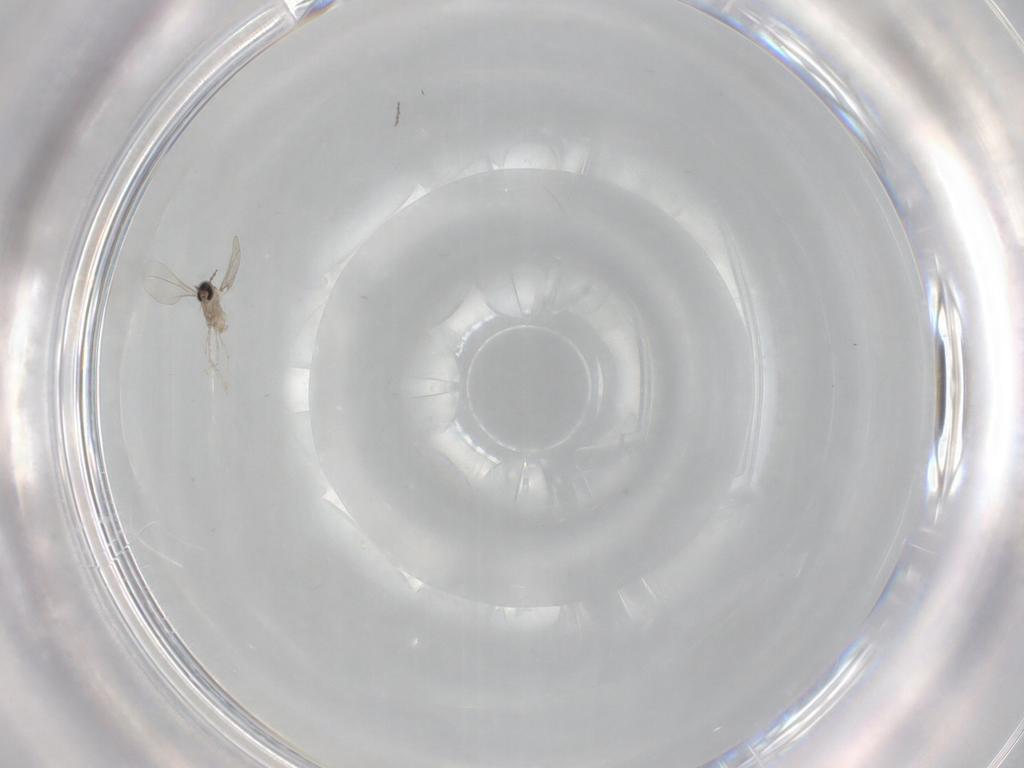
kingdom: Animalia
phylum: Arthropoda
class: Insecta
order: Diptera
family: Cecidomyiidae
